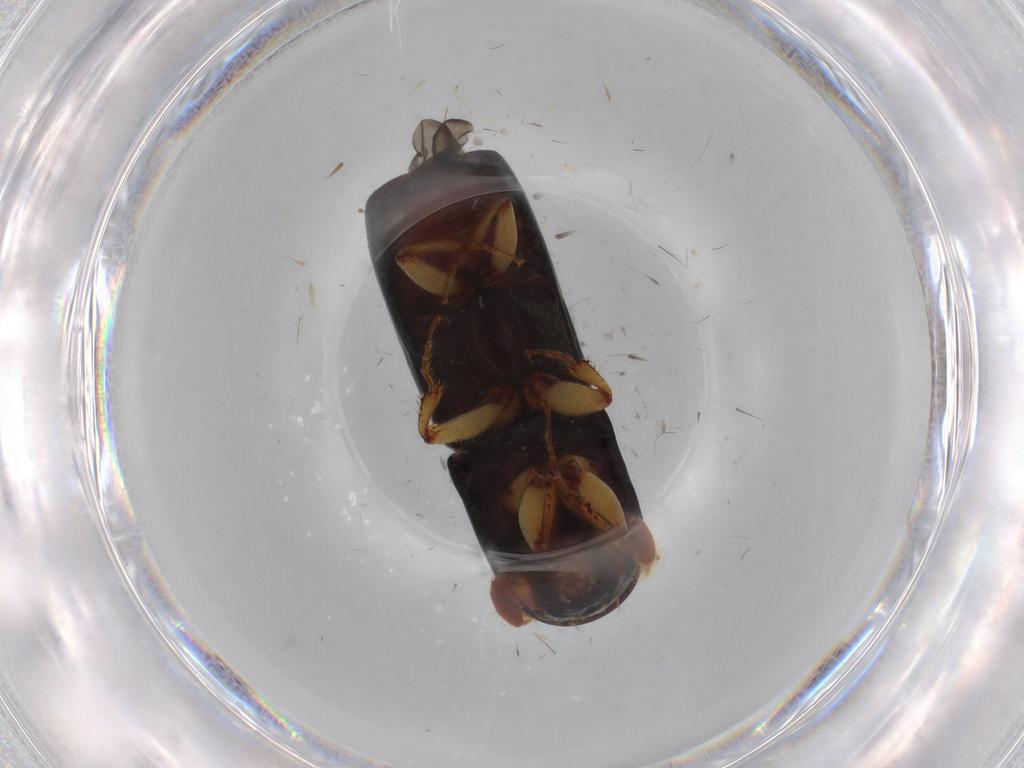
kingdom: Animalia
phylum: Arthropoda
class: Insecta
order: Coleoptera
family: Ptilodactylidae
